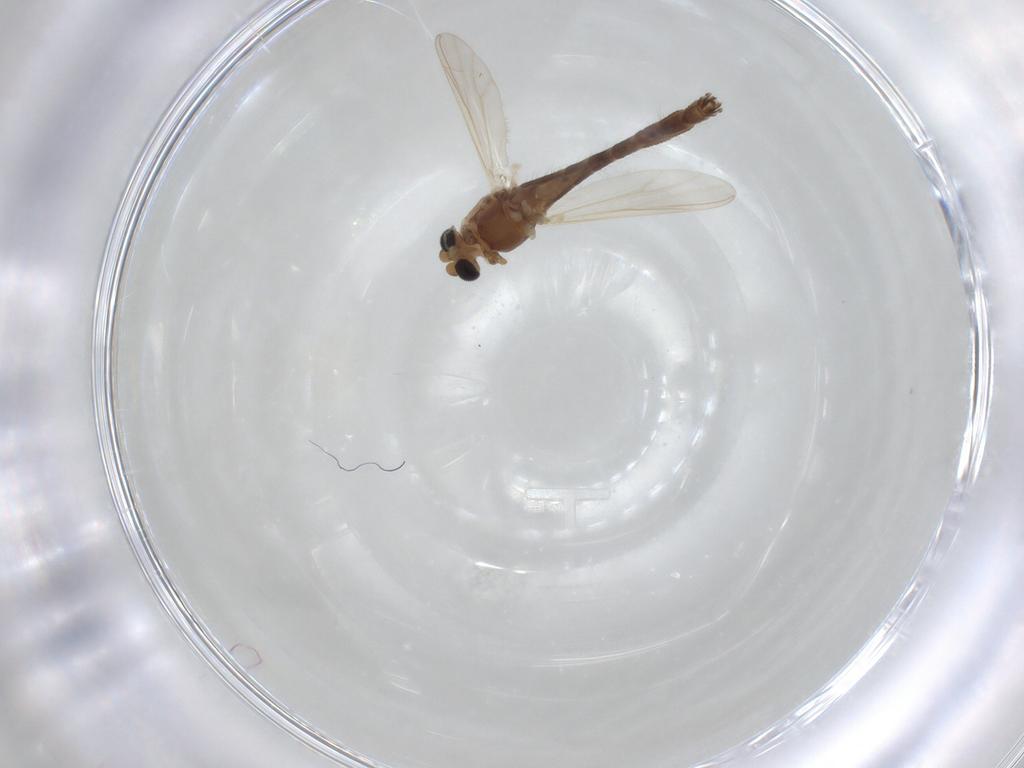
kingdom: Animalia
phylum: Arthropoda
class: Insecta
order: Diptera
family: Chironomidae
